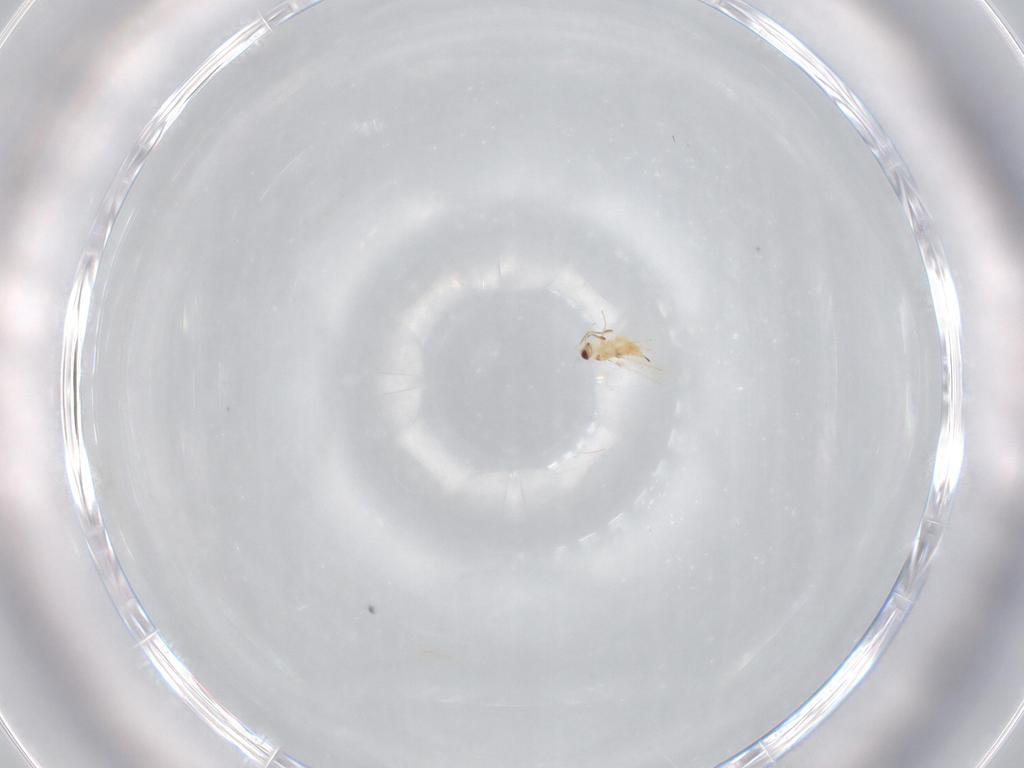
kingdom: Animalia
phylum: Arthropoda
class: Insecta
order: Hymenoptera
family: Mymaridae
